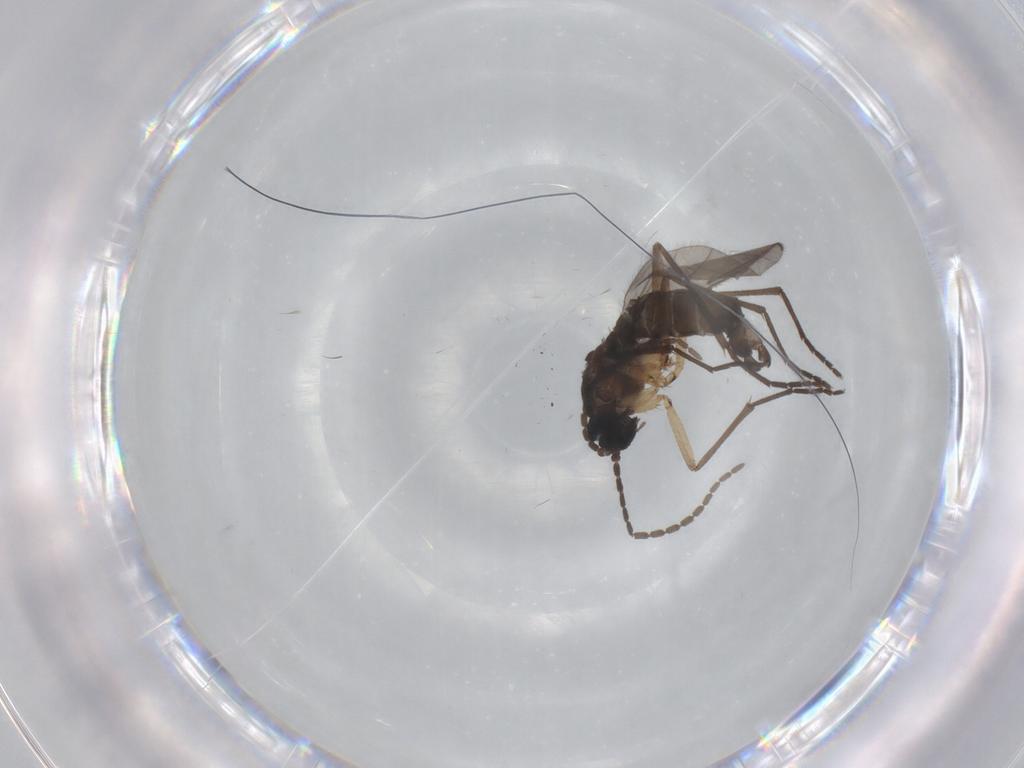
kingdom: Animalia
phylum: Arthropoda
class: Insecta
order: Diptera
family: Sciaridae
